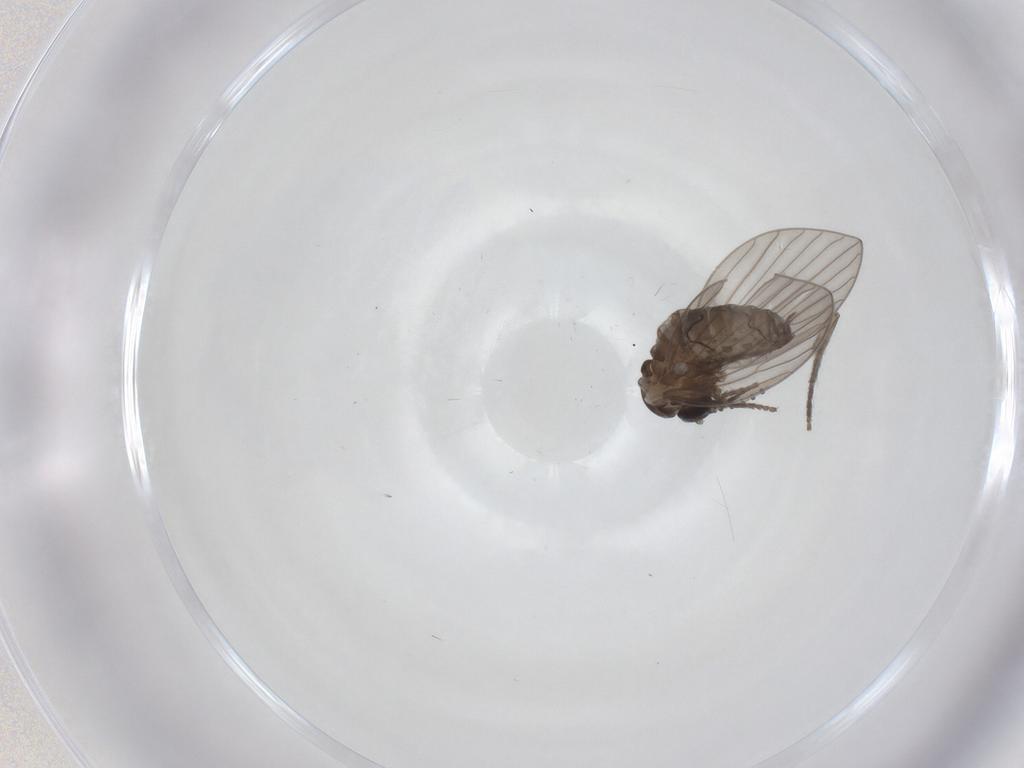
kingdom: Animalia
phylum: Arthropoda
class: Insecta
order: Diptera
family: Psychodidae
